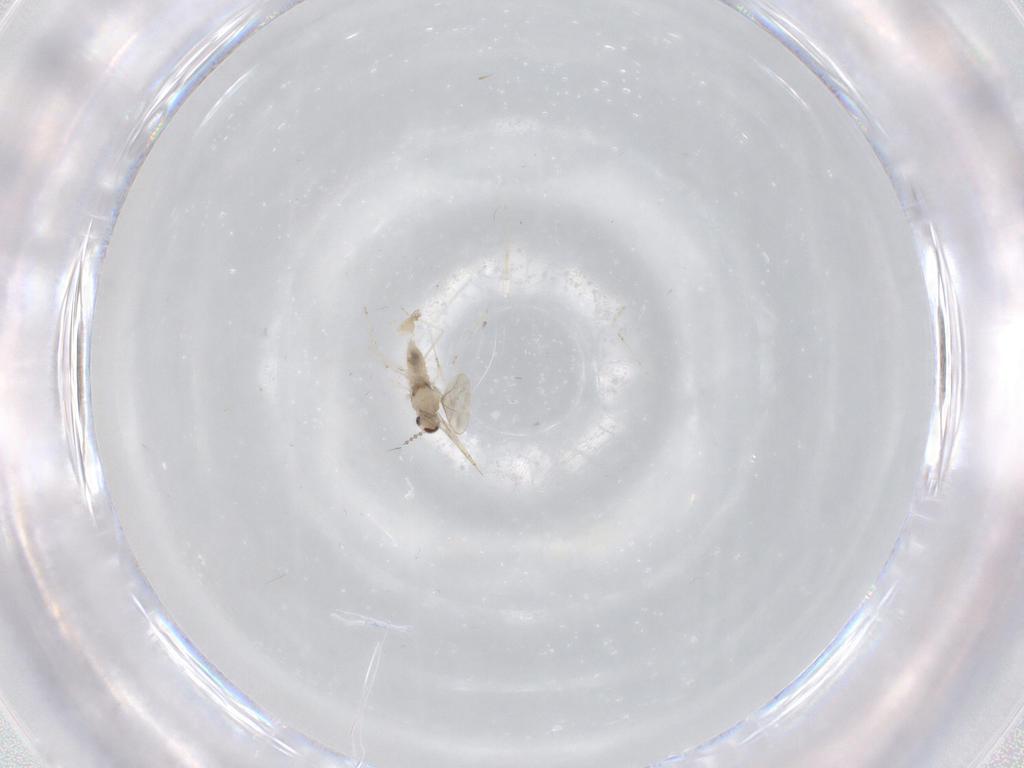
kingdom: Animalia
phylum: Arthropoda
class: Insecta
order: Diptera
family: Cecidomyiidae
